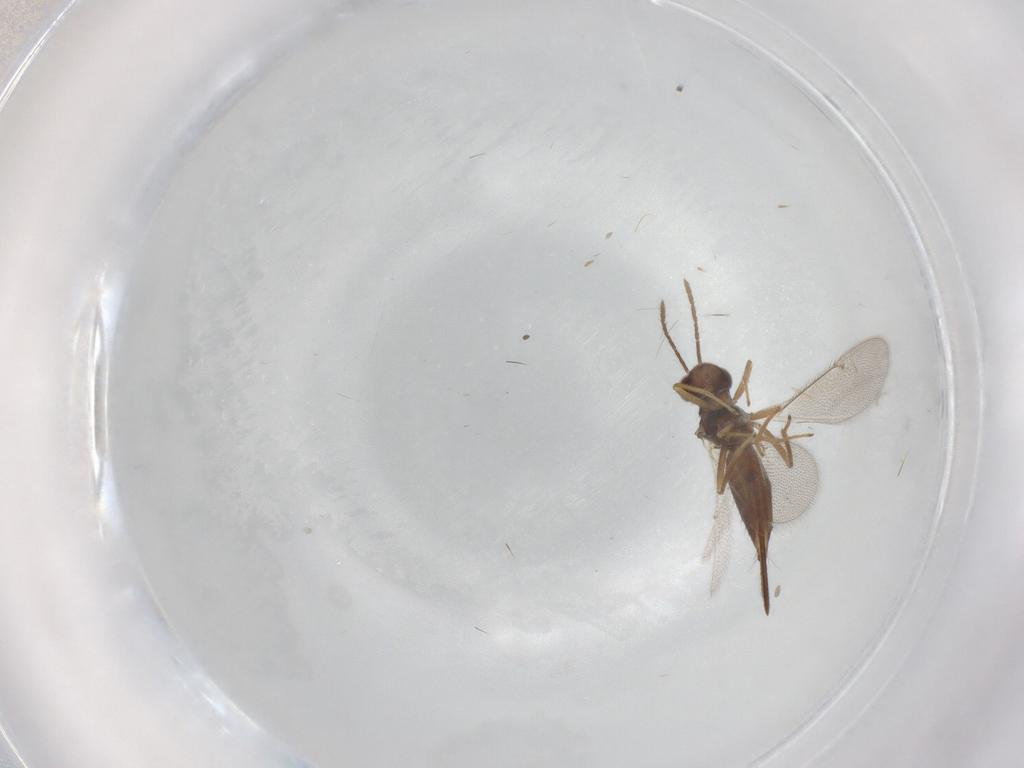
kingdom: Animalia
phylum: Arthropoda
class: Insecta
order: Hymenoptera
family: Eulophidae
